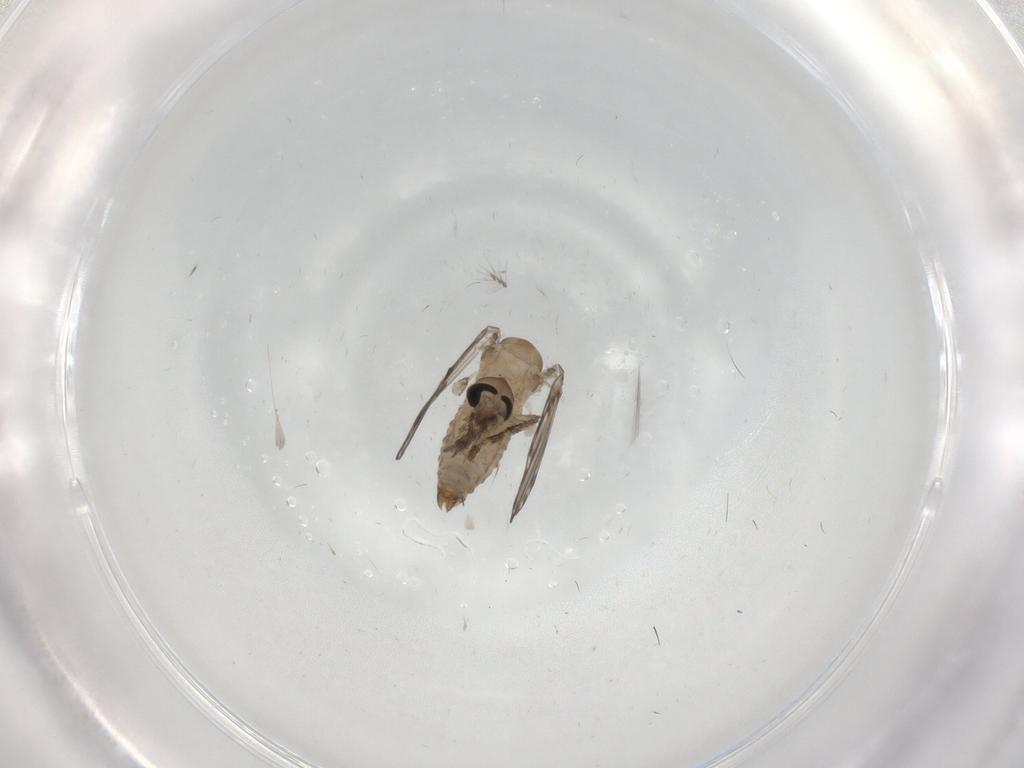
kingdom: Animalia
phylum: Arthropoda
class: Insecta
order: Diptera
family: Psychodidae
